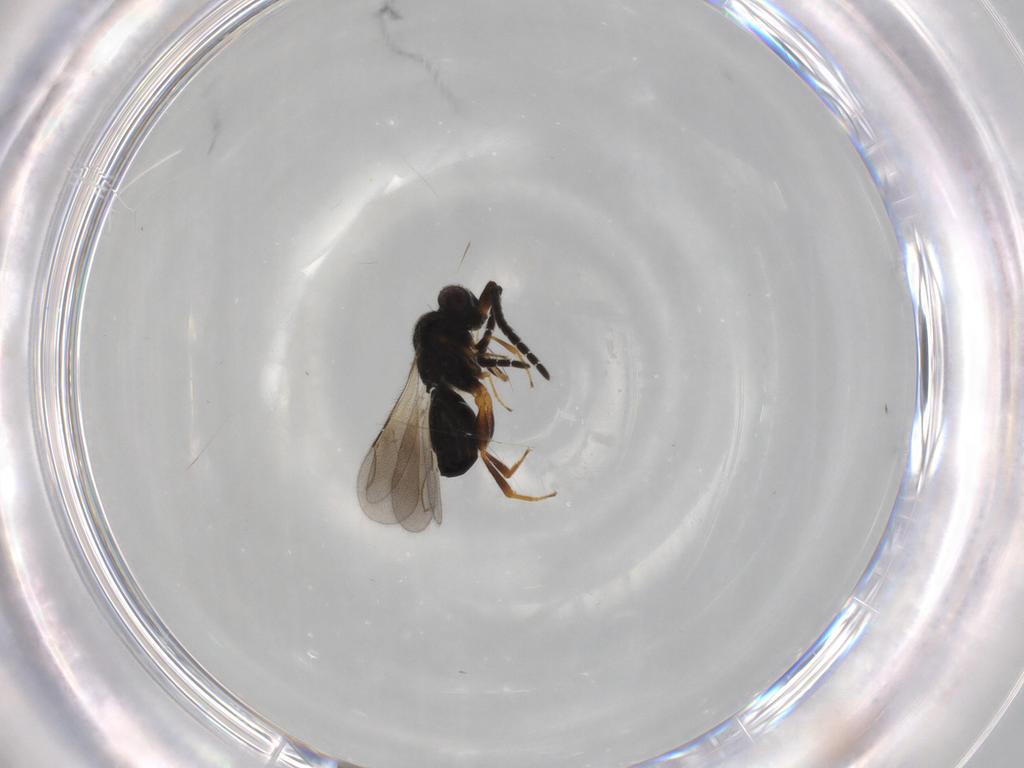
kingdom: Animalia
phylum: Arthropoda
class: Insecta
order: Hymenoptera
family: Ceraphronidae
